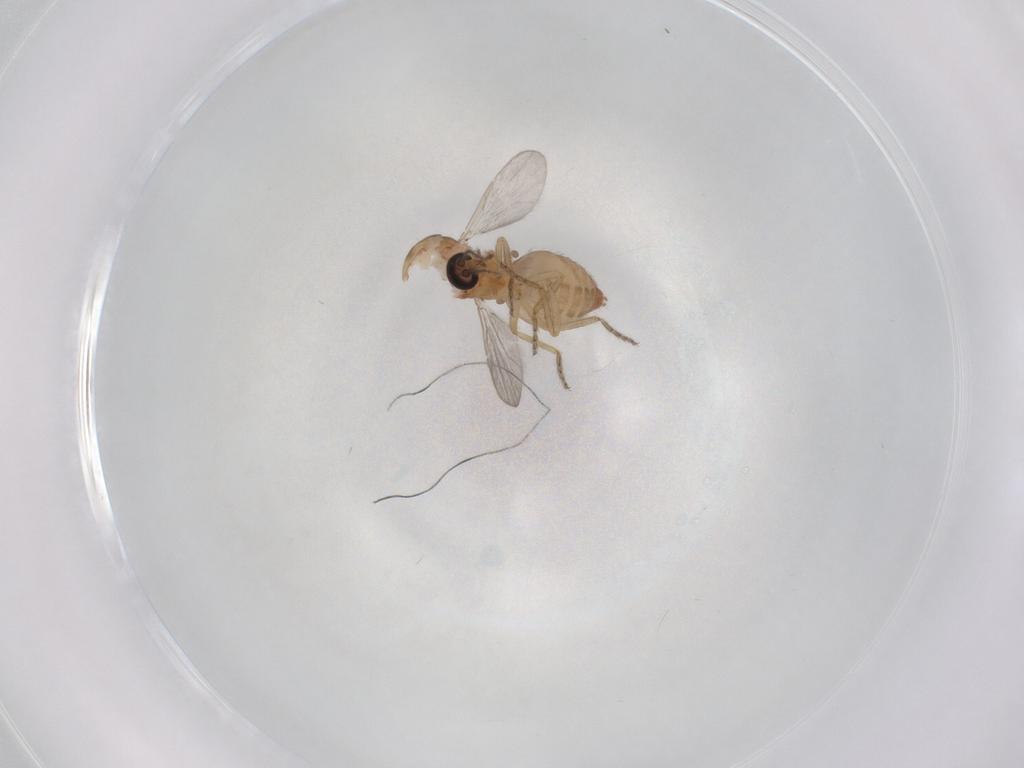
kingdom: Animalia
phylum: Arthropoda
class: Insecta
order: Diptera
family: Ceratopogonidae
